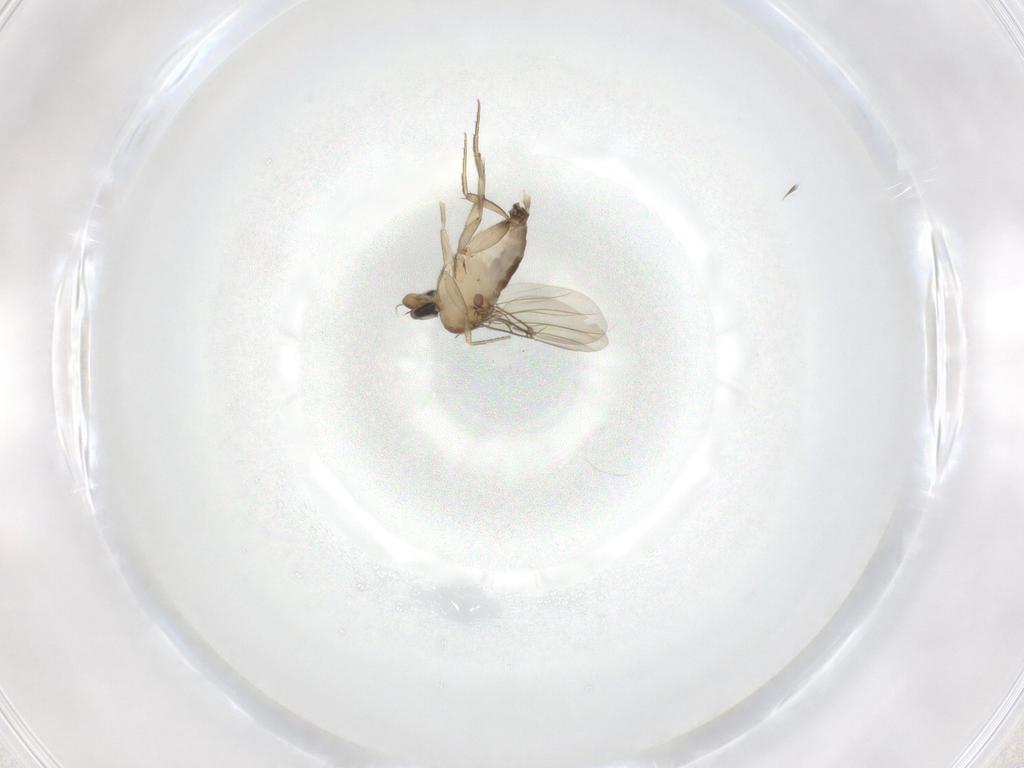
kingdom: Animalia
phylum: Arthropoda
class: Insecta
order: Diptera
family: Phoridae
